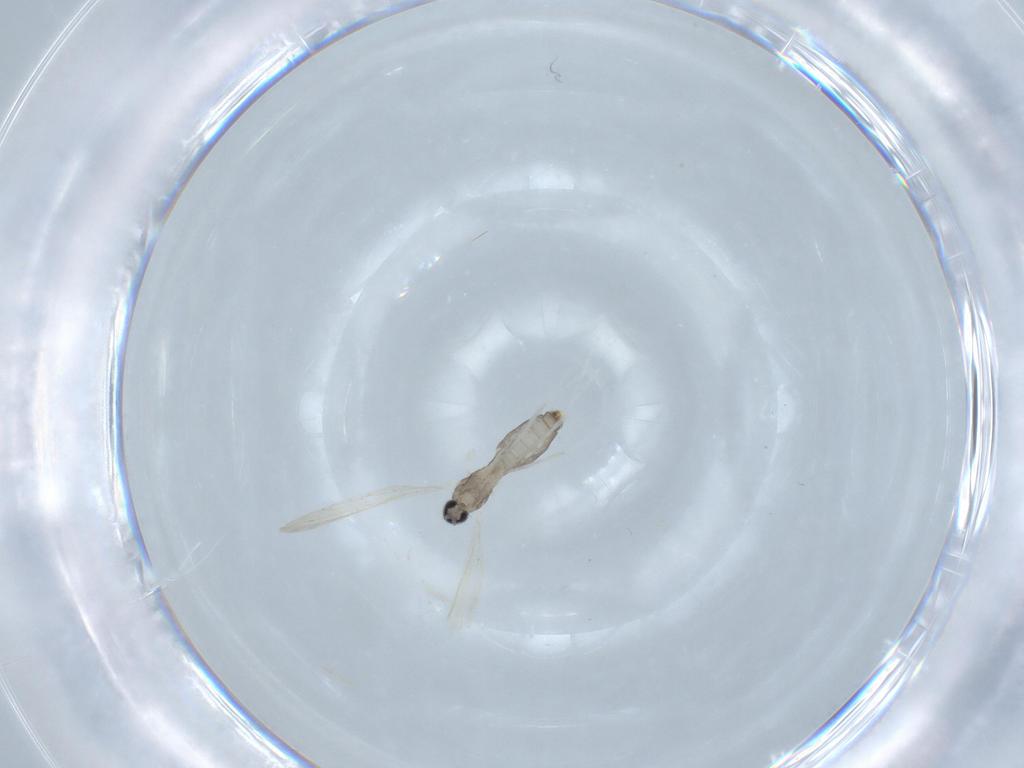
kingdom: Animalia
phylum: Arthropoda
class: Insecta
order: Diptera
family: Cecidomyiidae
